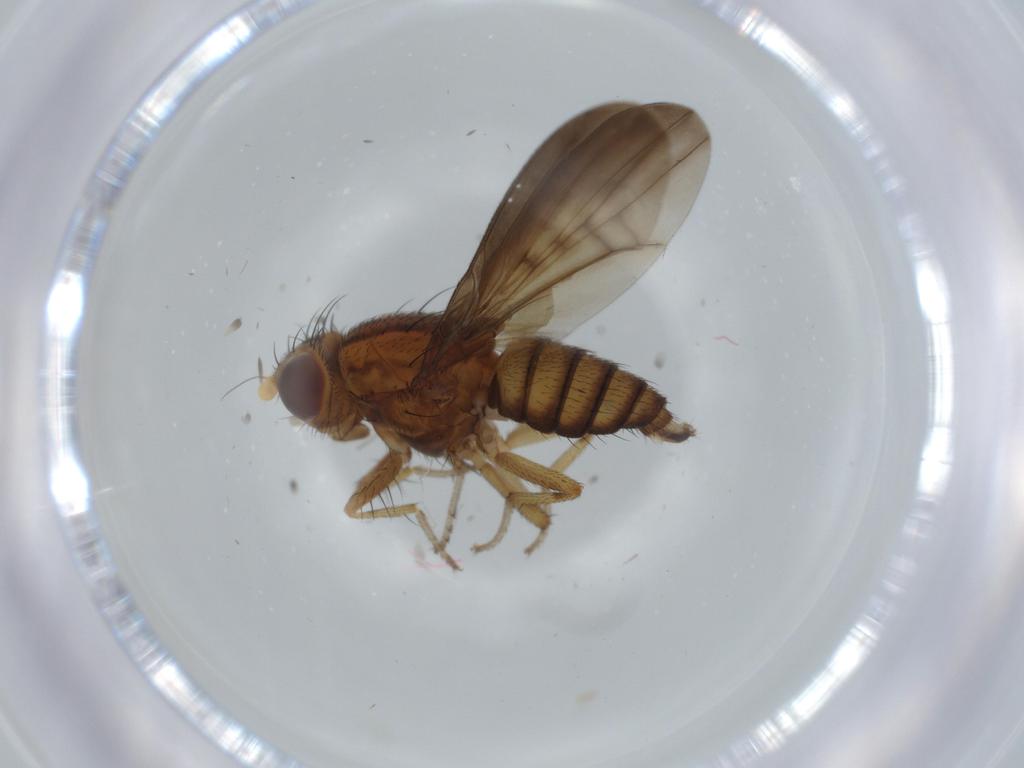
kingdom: Animalia
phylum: Arthropoda
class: Insecta
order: Diptera
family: Lauxaniidae
